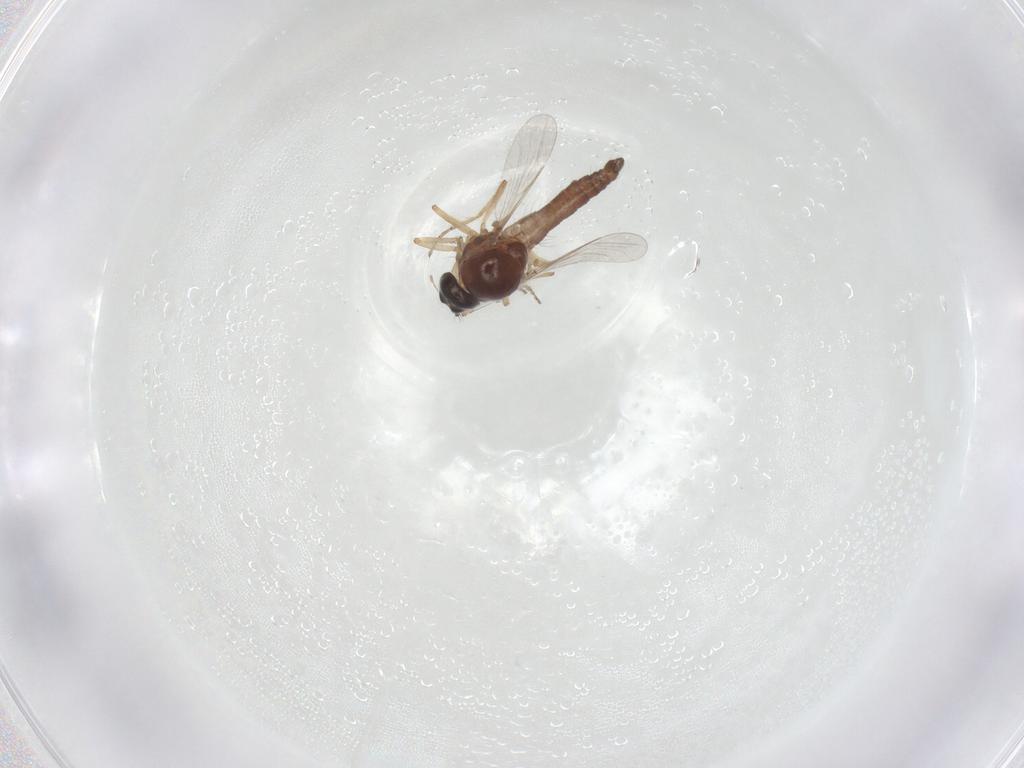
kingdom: Animalia
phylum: Arthropoda
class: Insecta
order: Diptera
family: Ceratopogonidae
